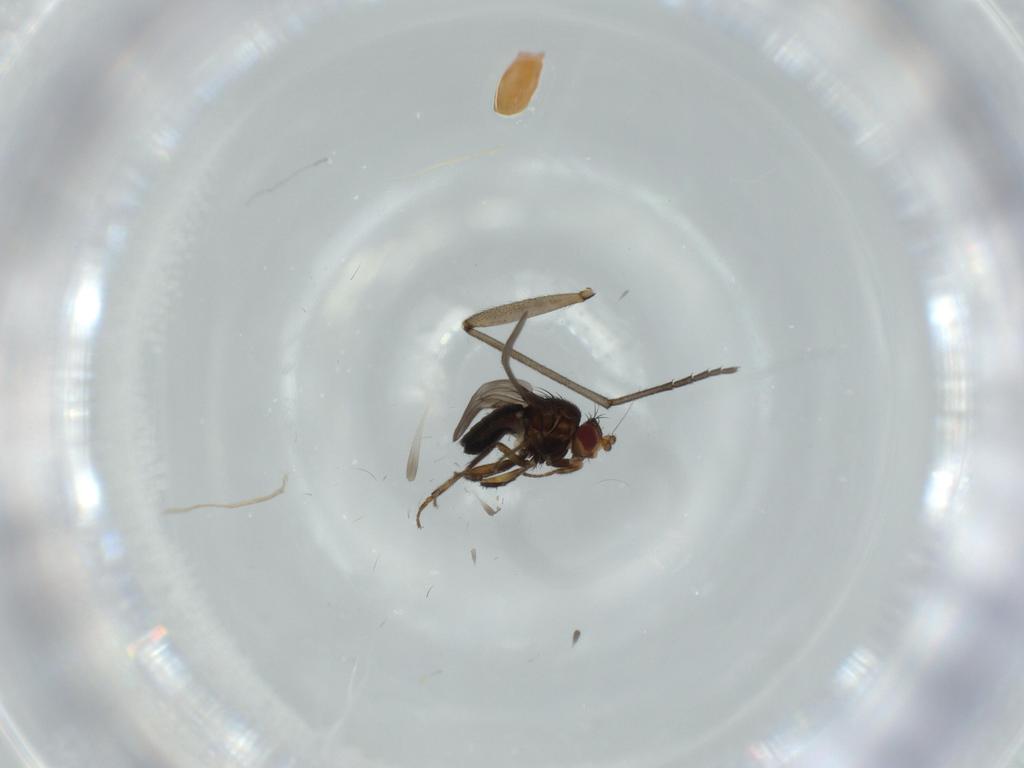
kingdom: Animalia
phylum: Arthropoda
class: Insecta
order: Diptera
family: Sciaridae
